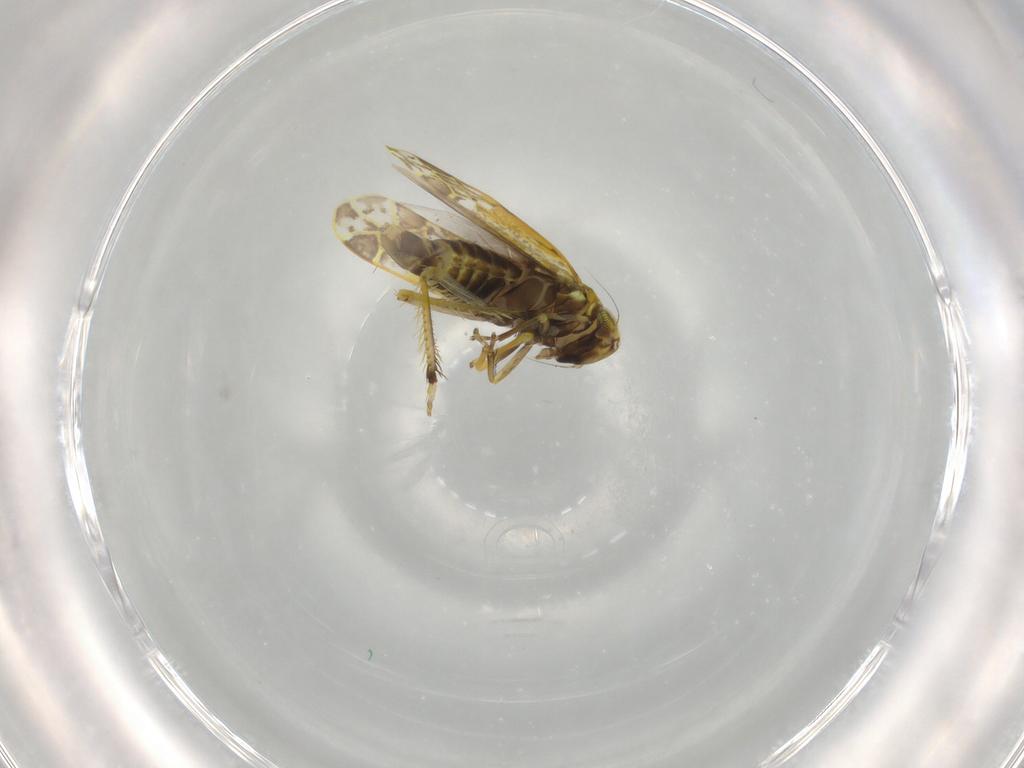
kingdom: Animalia
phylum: Arthropoda
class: Insecta
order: Hemiptera
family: Cicadellidae
